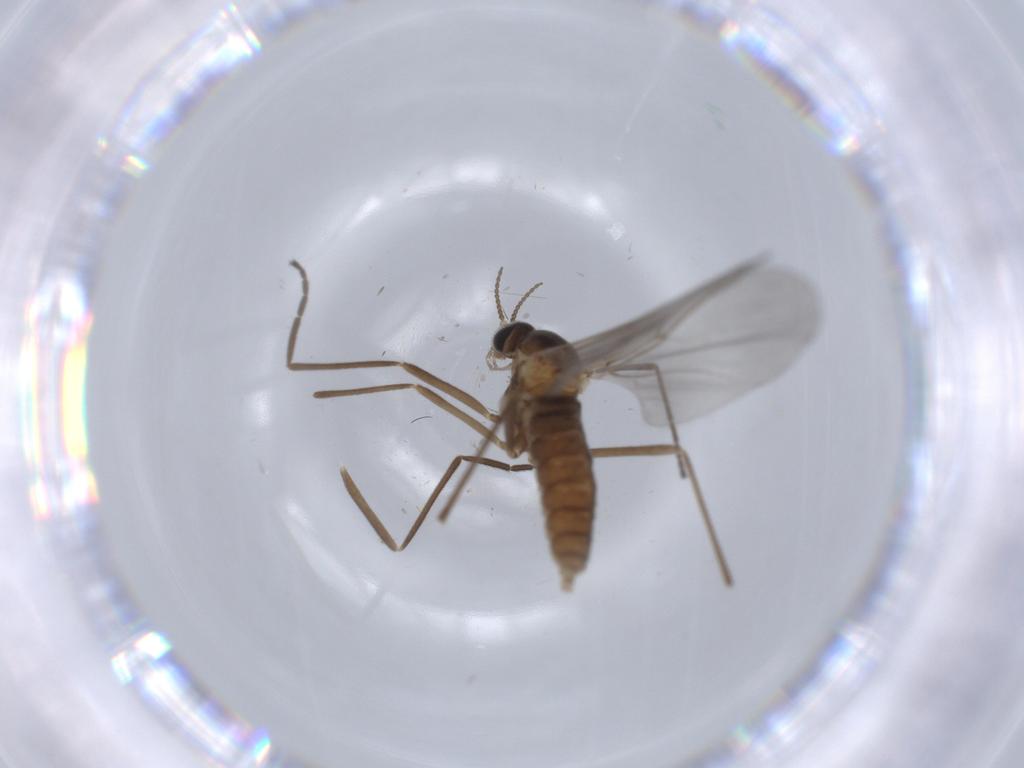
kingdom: Animalia
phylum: Arthropoda
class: Insecta
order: Diptera
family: Cecidomyiidae
